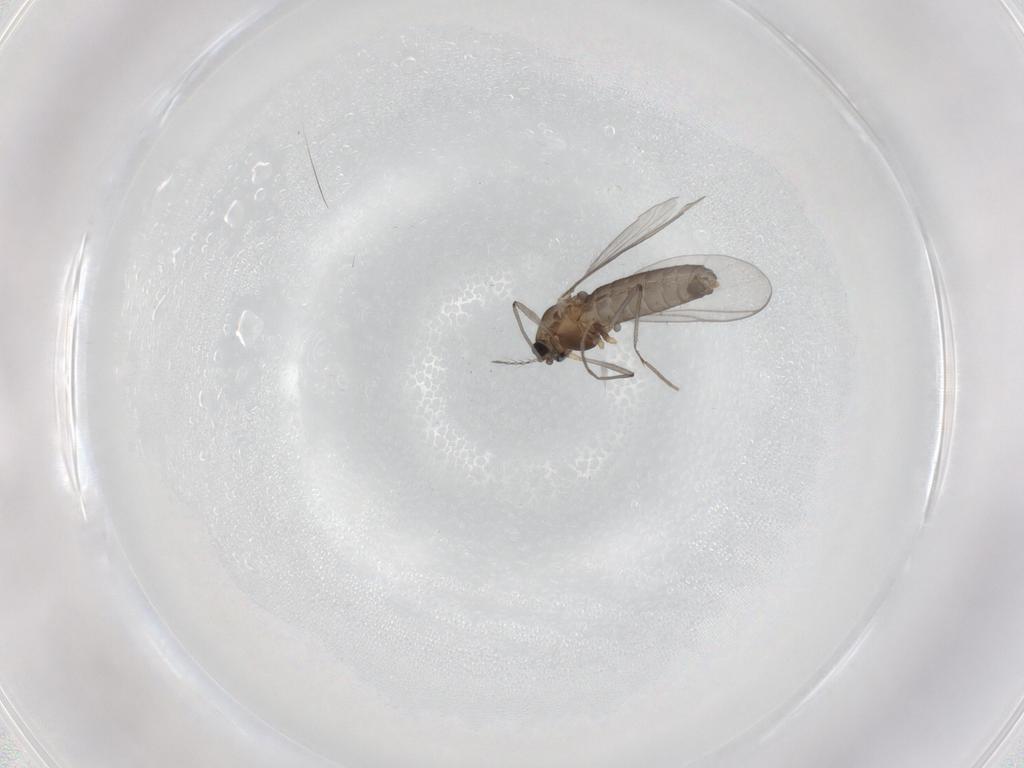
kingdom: Animalia
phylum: Arthropoda
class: Insecta
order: Diptera
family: Chironomidae
